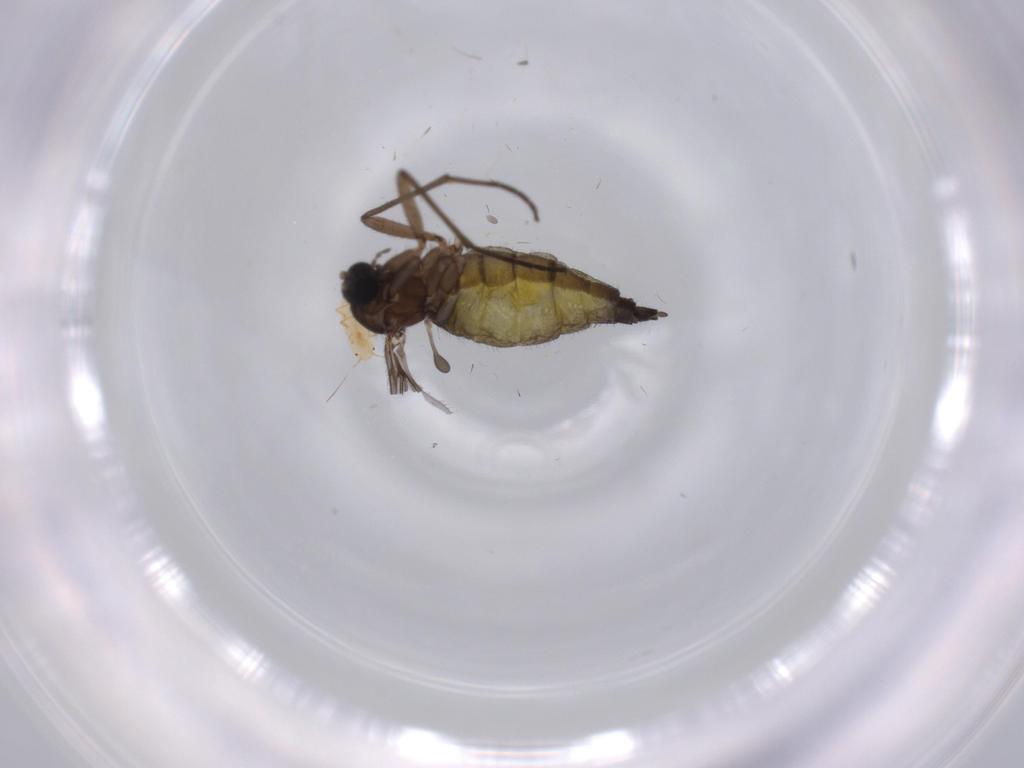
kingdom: Animalia
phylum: Arthropoda
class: Insecta
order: Diptera
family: Sciaridae
